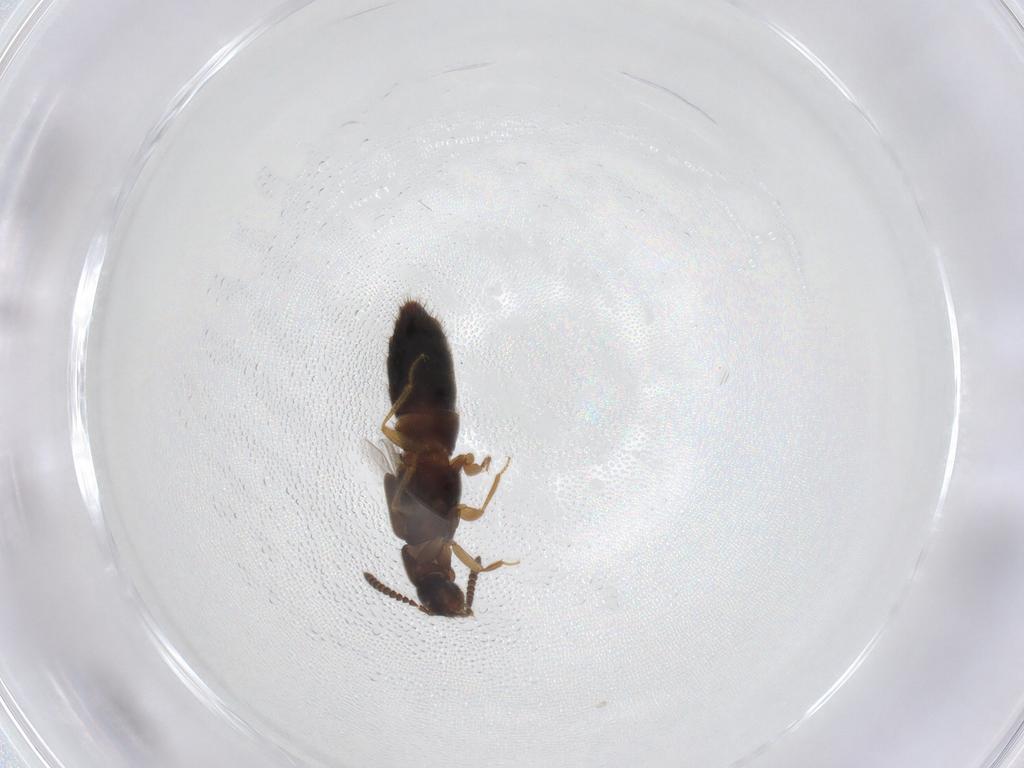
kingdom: Animalia
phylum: Arthropoda
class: Insecta
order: Coleoptera
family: Staphylinidae
